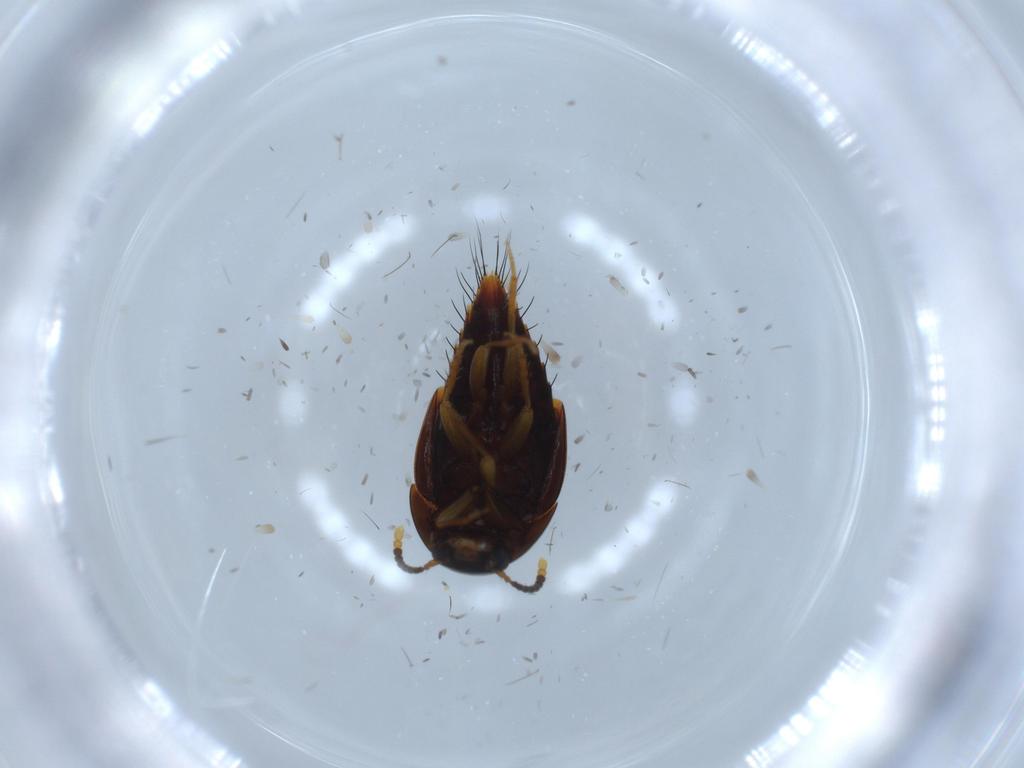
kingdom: Animalia
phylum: Arthropoda
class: Insecta
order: Coleoptera
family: Staphylinidae
